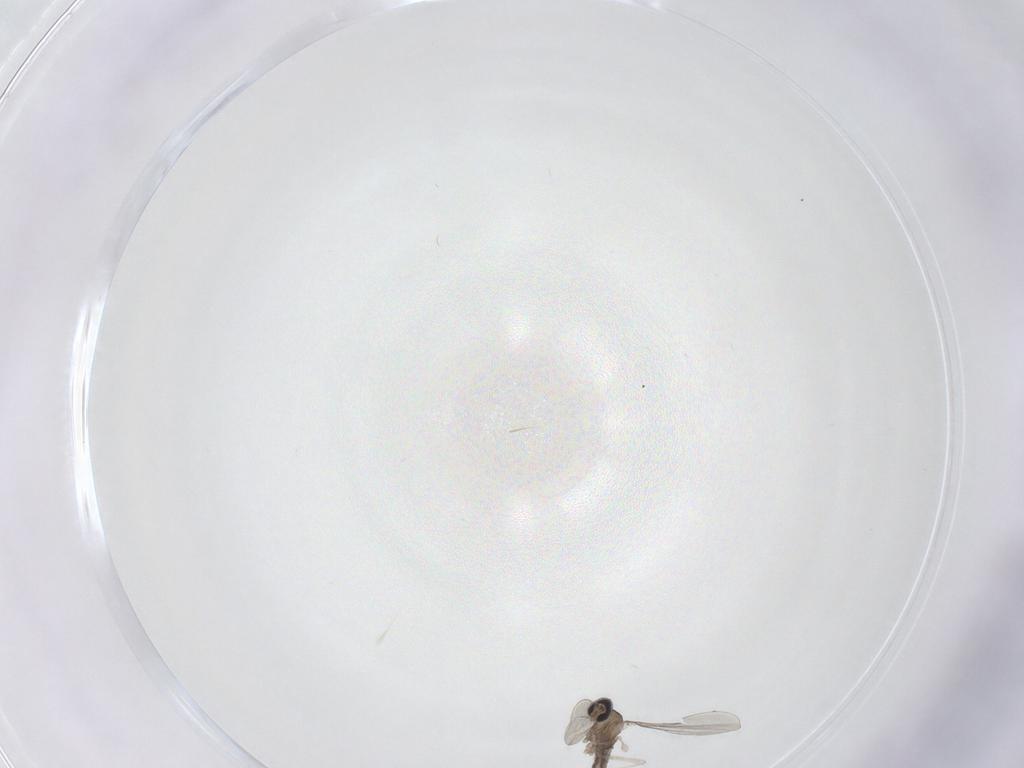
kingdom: Animalia
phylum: Arthropoda
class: Insecta
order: Diptera
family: Cecidomyiidae
